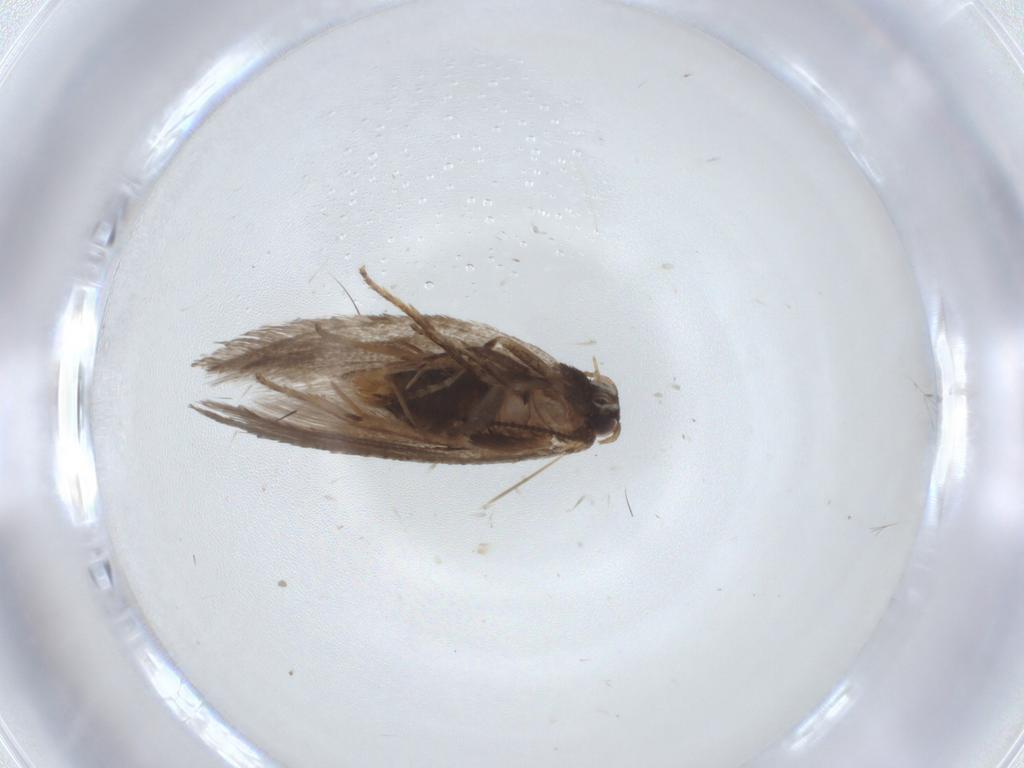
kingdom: Animalia
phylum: Arthropoda
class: Insecta
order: Lepidoptera
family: Nepticulidae
